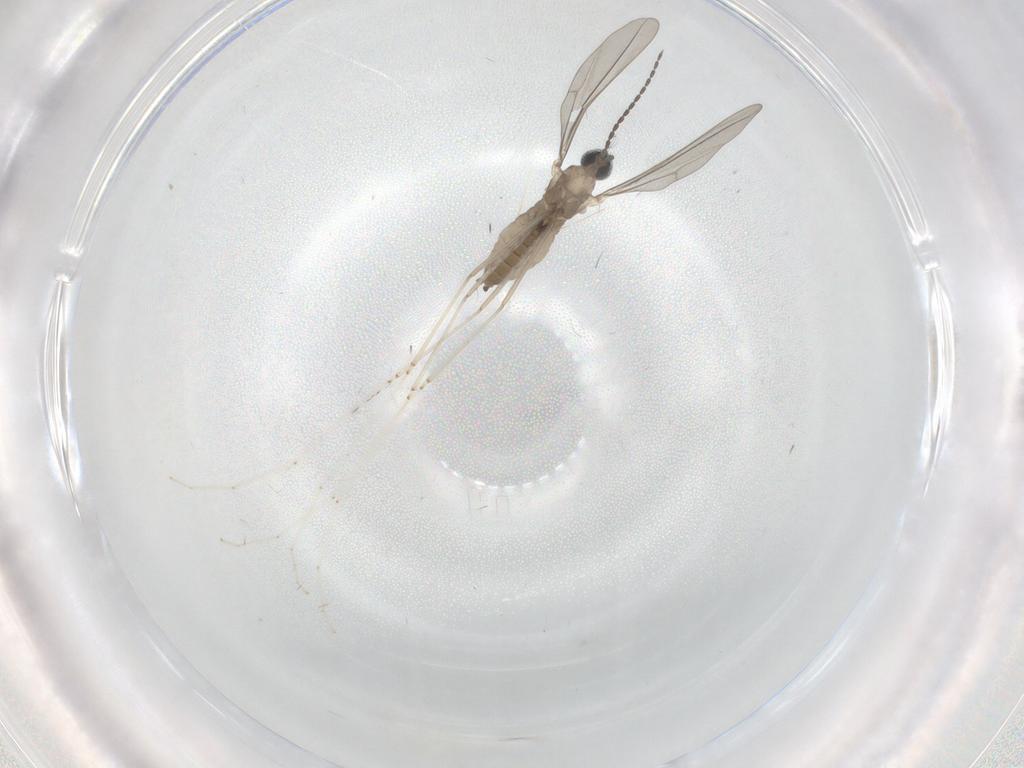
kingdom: Animalia
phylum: Arthropoda
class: Insecta
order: Diptera
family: Cecidomyiidae
